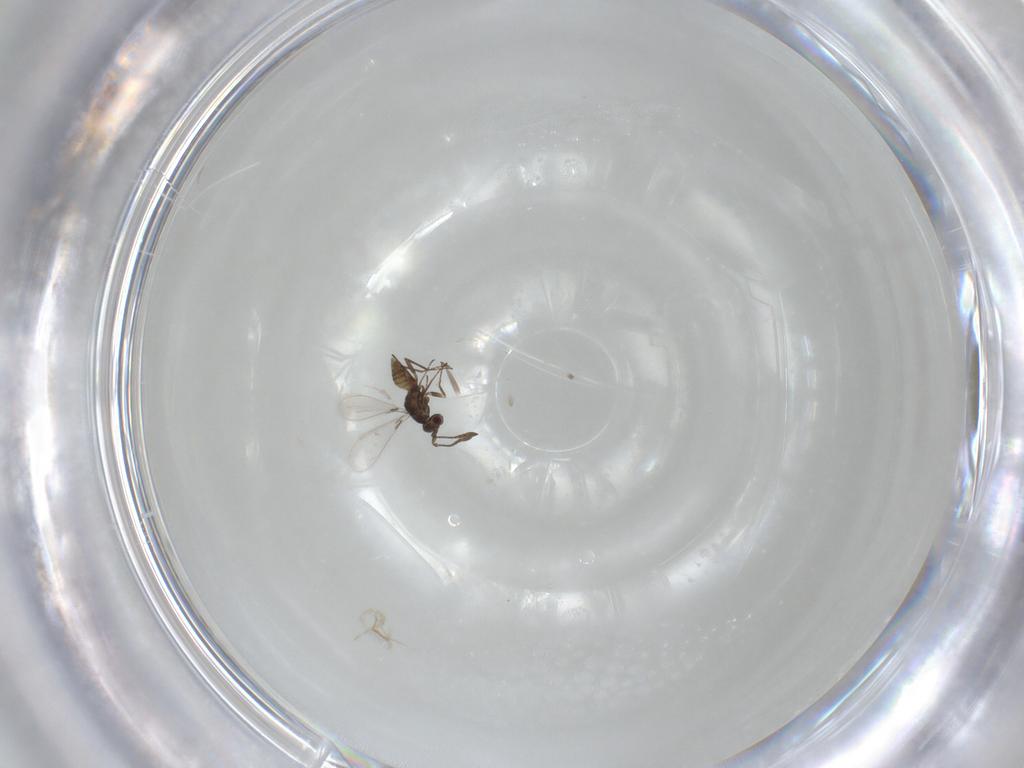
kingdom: Animalia
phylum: Arthropoda
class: Insecta
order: Hymenoptera
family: Mymaridae
